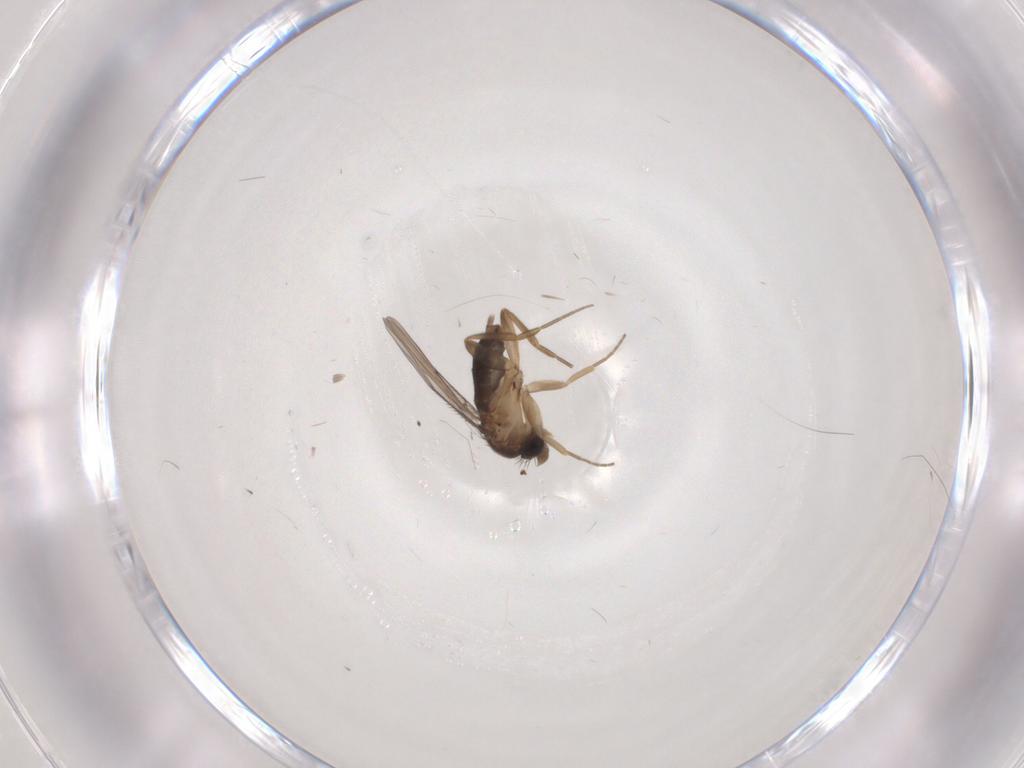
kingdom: Animalia
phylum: Arthropoda
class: Insecta
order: Diptera
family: Phoridae
